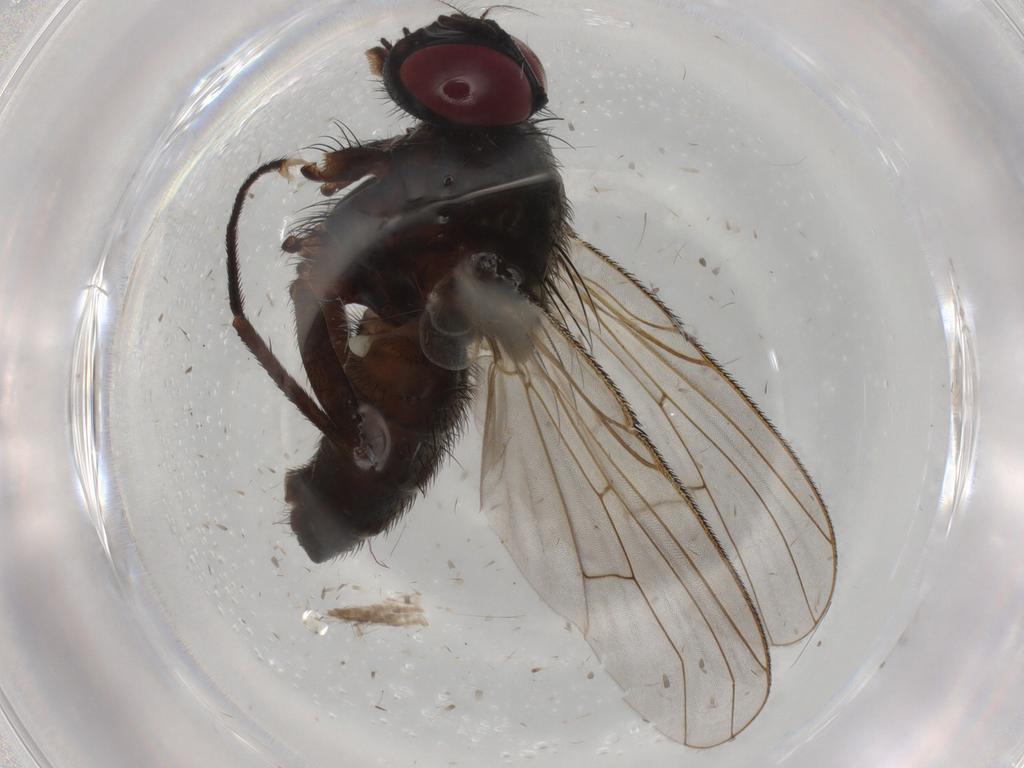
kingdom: Animalia
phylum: Arthropoda
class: Insecta
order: Diptera
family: Muscidae
